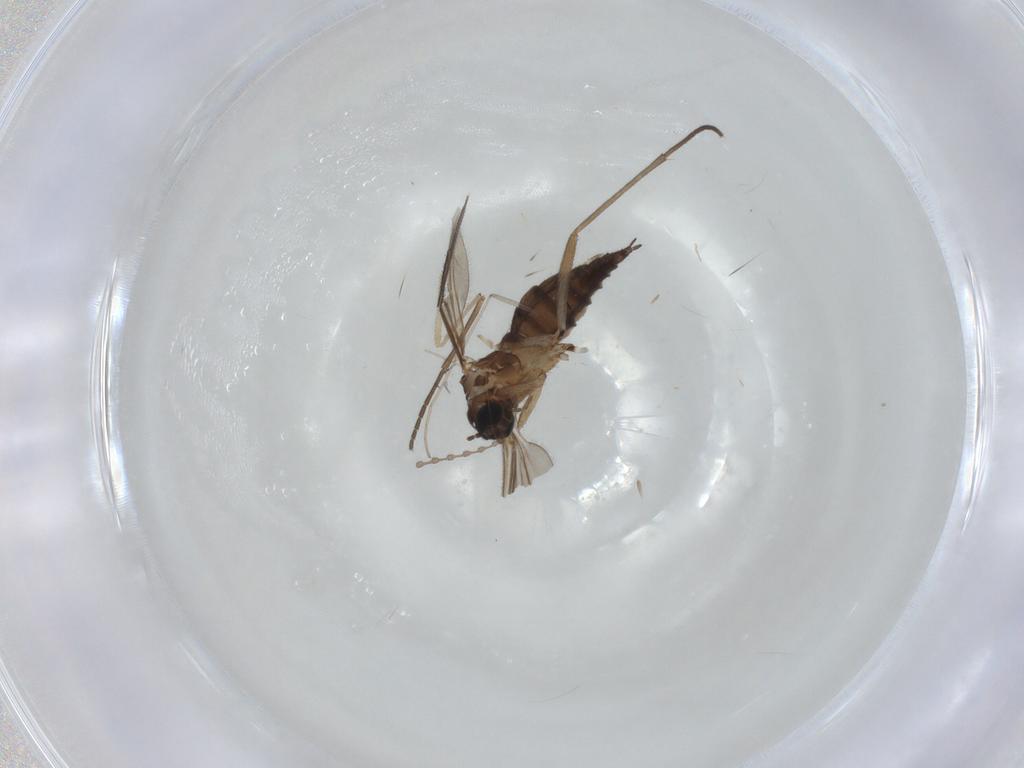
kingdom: Animalia
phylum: Arthropoda
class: Insecta
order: Diptera
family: Sciaridae
